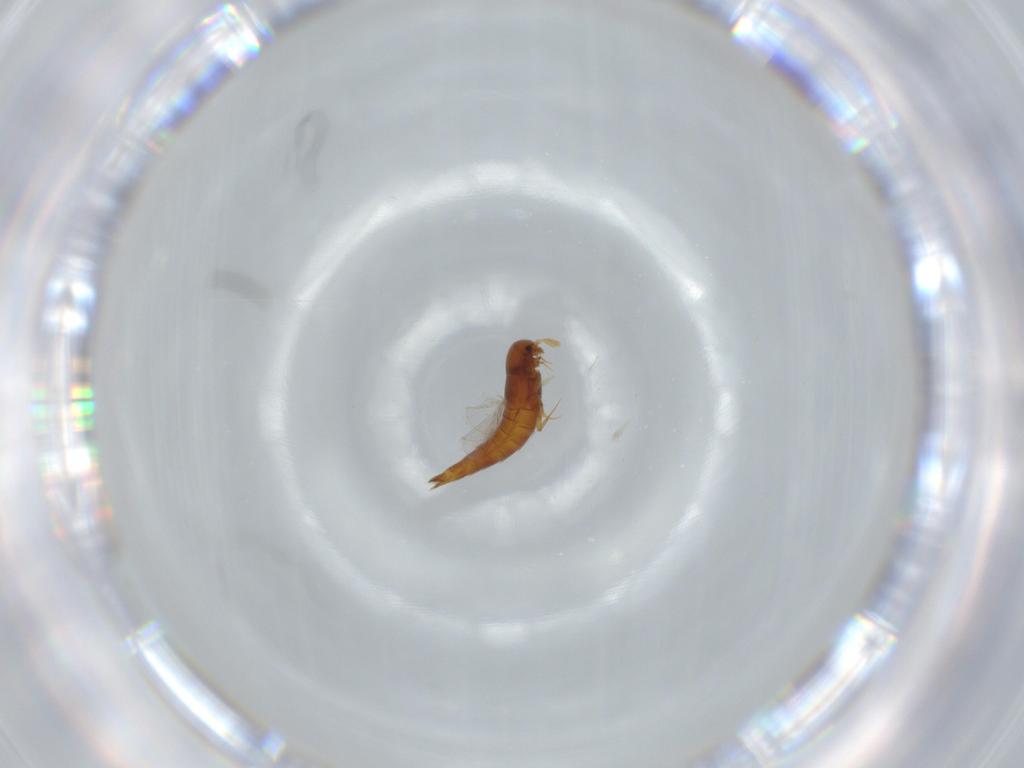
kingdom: Animalia
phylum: Arthropoda
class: Insecta
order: Coleoptera
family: Staphylinidae
